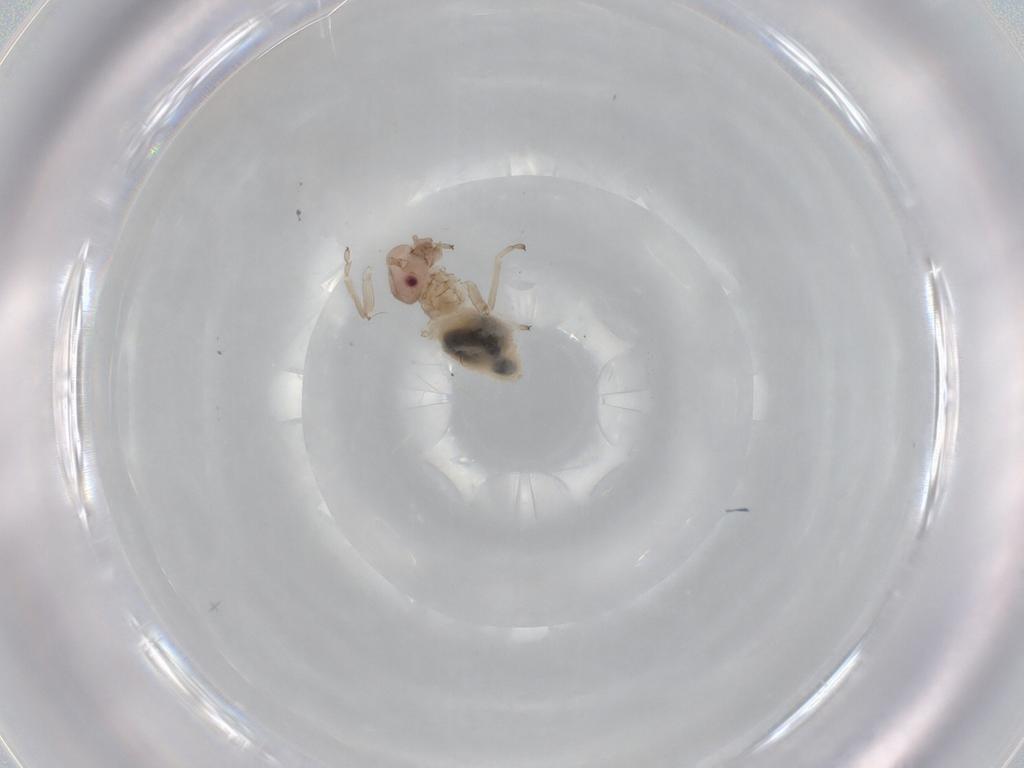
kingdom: Animalia
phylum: Arthropoda
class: Insecta
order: Psocodea
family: Stenopsocidae
